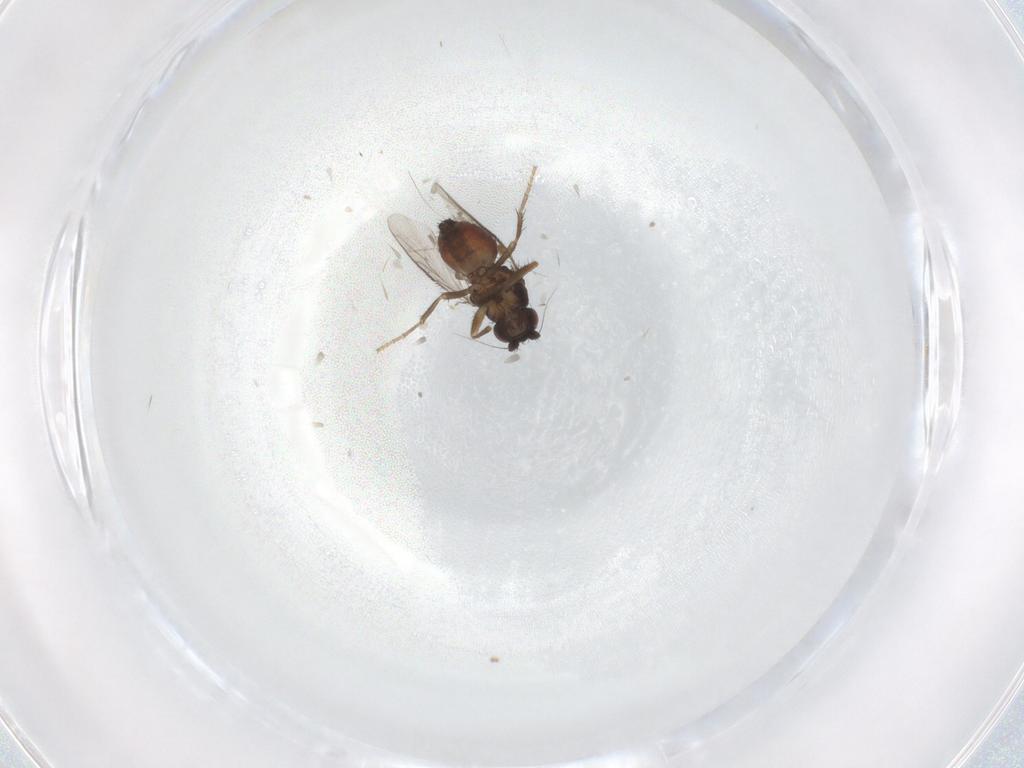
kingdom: Animalia
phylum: Arthropoda
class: Insecta
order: Diptera
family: Sphaeroceridae
